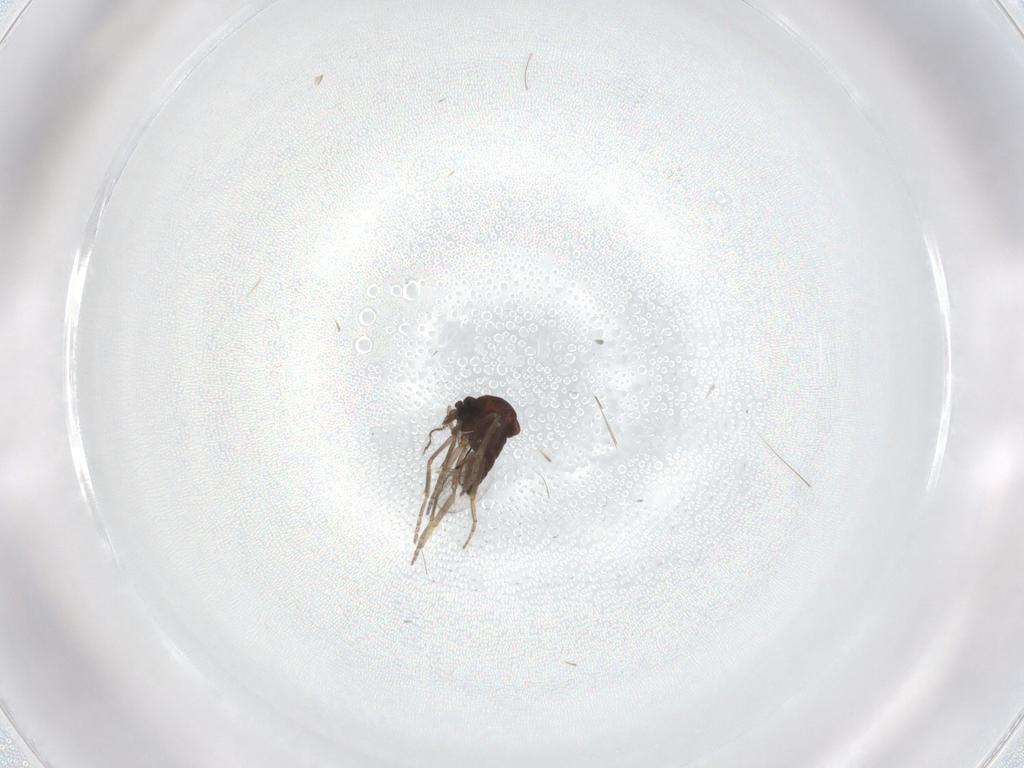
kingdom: Animalia
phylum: Arthropoda
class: Insecta
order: Diptera
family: Ceratopogonidae
